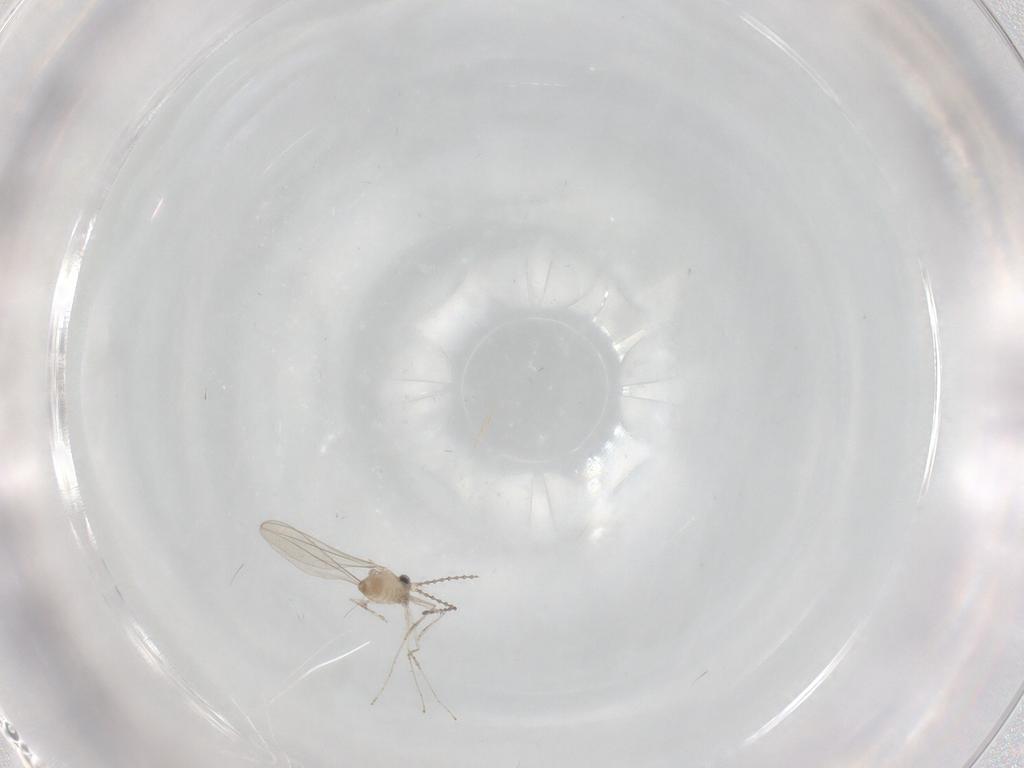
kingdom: Animalia
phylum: Arthropoda
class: Insecta
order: Diptera
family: Cecidomyiidae
